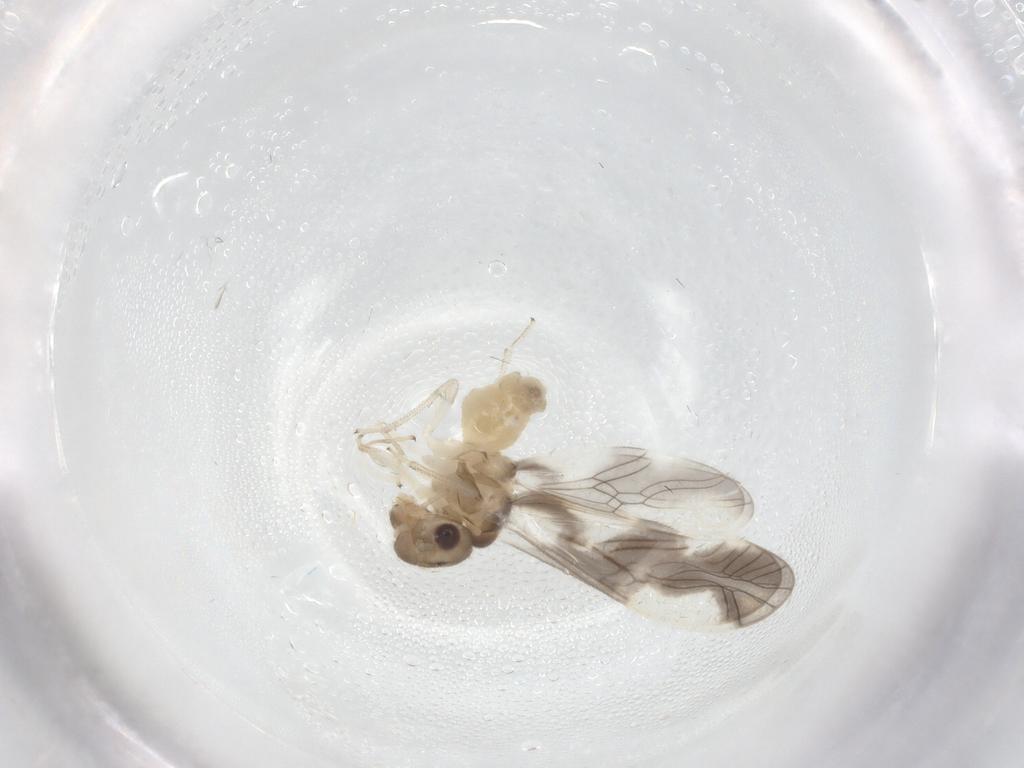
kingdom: Animalia
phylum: Arthropoda
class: Insecta
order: Psocodea
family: Caeciliusidae
